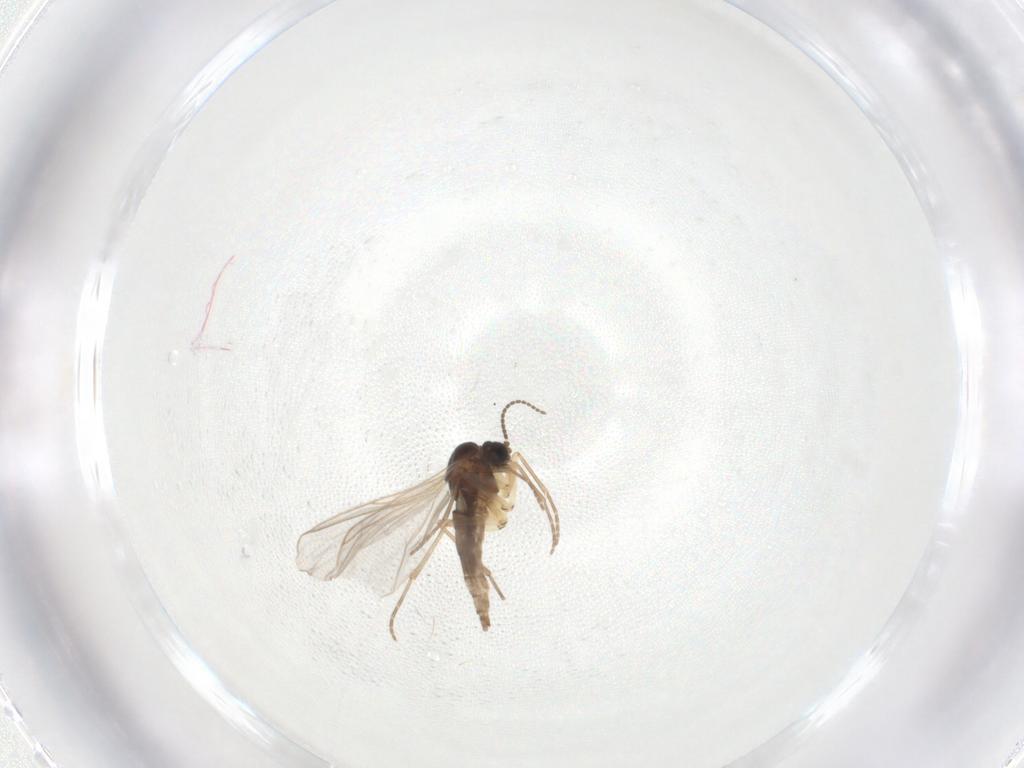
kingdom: Animalia
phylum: Arthropoda
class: Insecta
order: Diptera
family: Sciaridae
